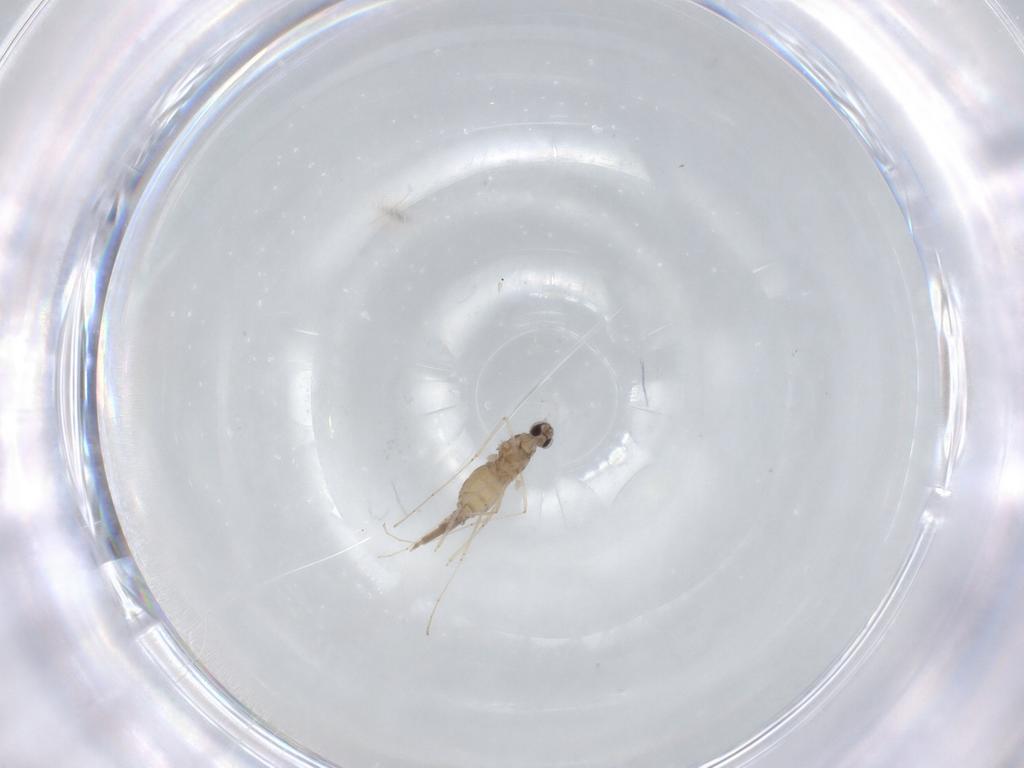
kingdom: Animalia
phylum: Arthropoda
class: Insecta
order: Diptera
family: Cecidomyiidae
